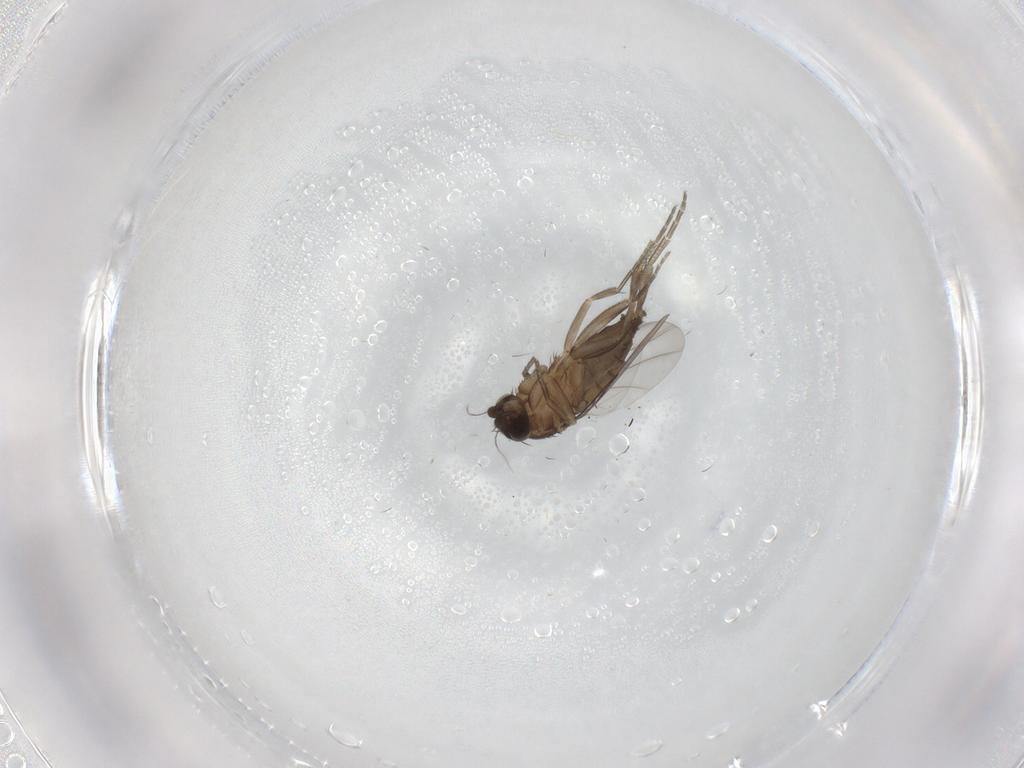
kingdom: Animalia
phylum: Arthropoda
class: Insecta
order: Diptera
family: Phoridae
